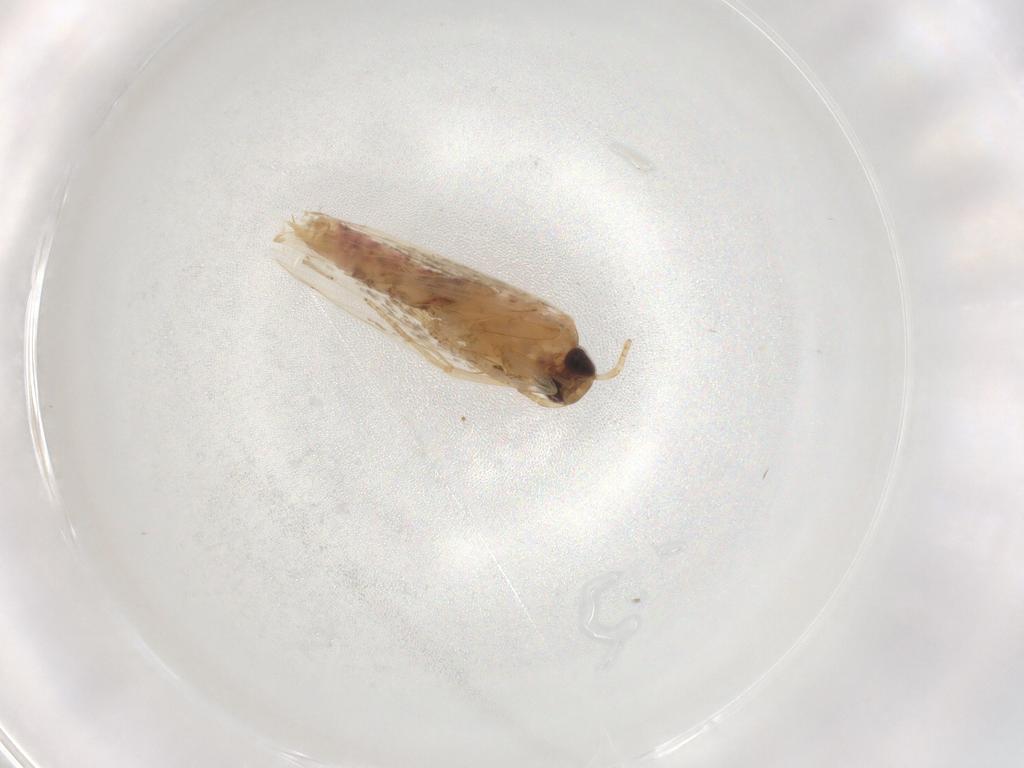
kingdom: Animalia
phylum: Arthropoda
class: Insecta
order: Lepidoptera
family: Gelechiidae
